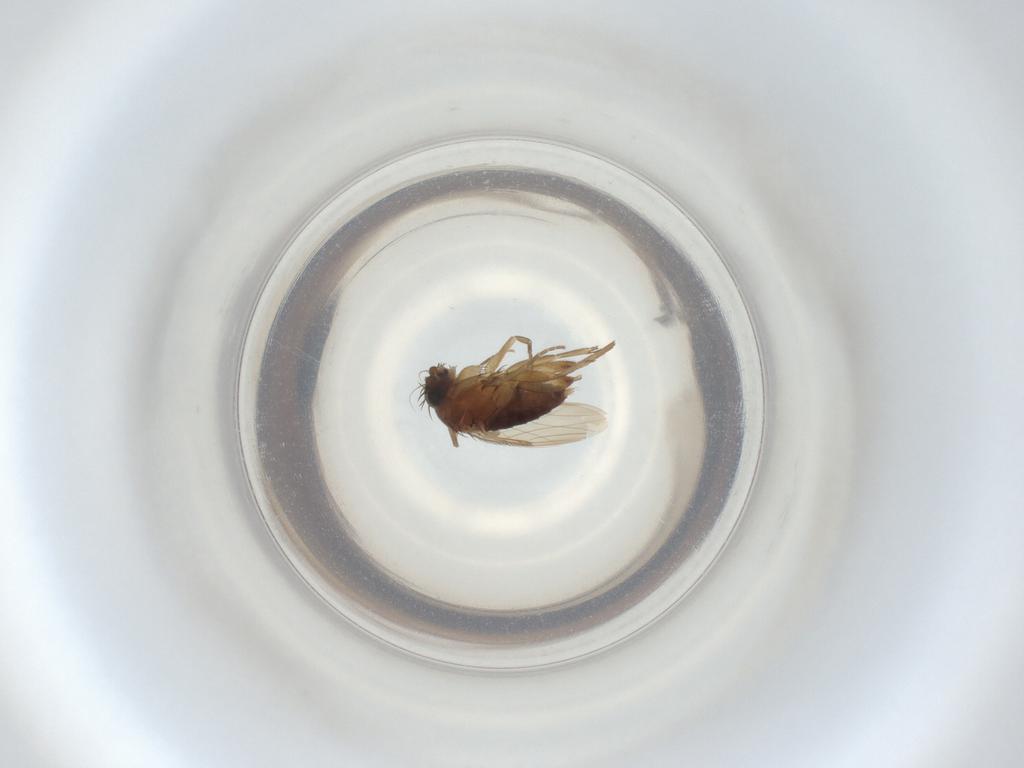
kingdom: Animalia
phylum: Arthropoda
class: Insecta
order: Diptera
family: Phoridae
